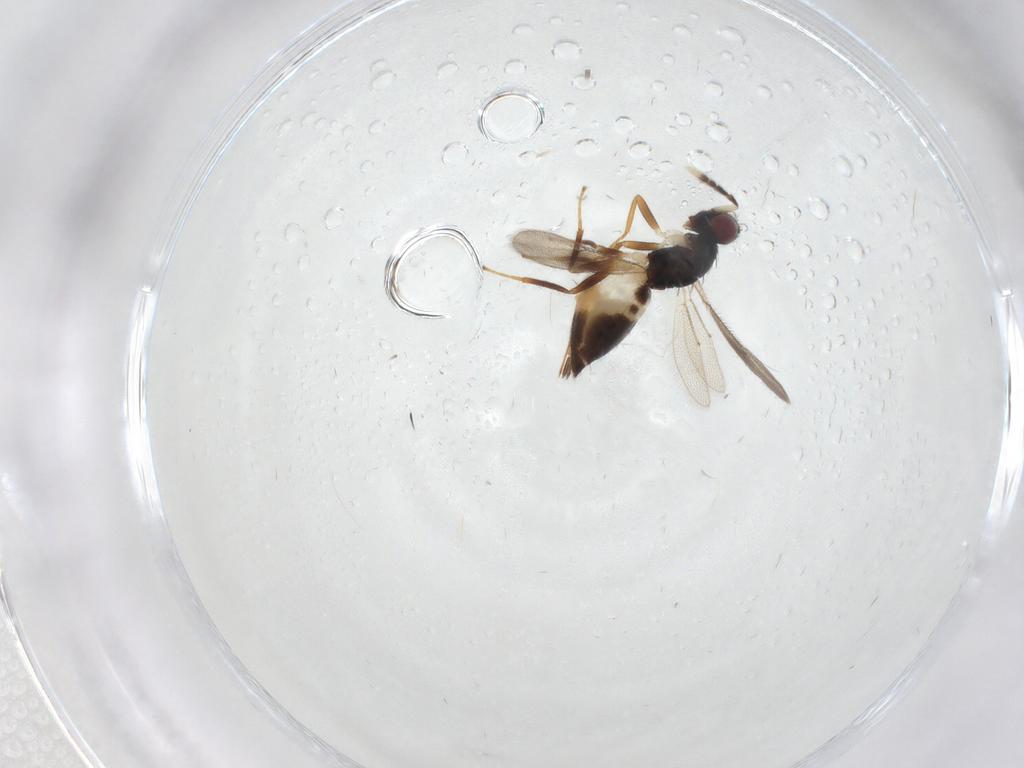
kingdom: Animalia
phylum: Arthropoda
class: Insecta
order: Hymenoptera
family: Eulophidae
